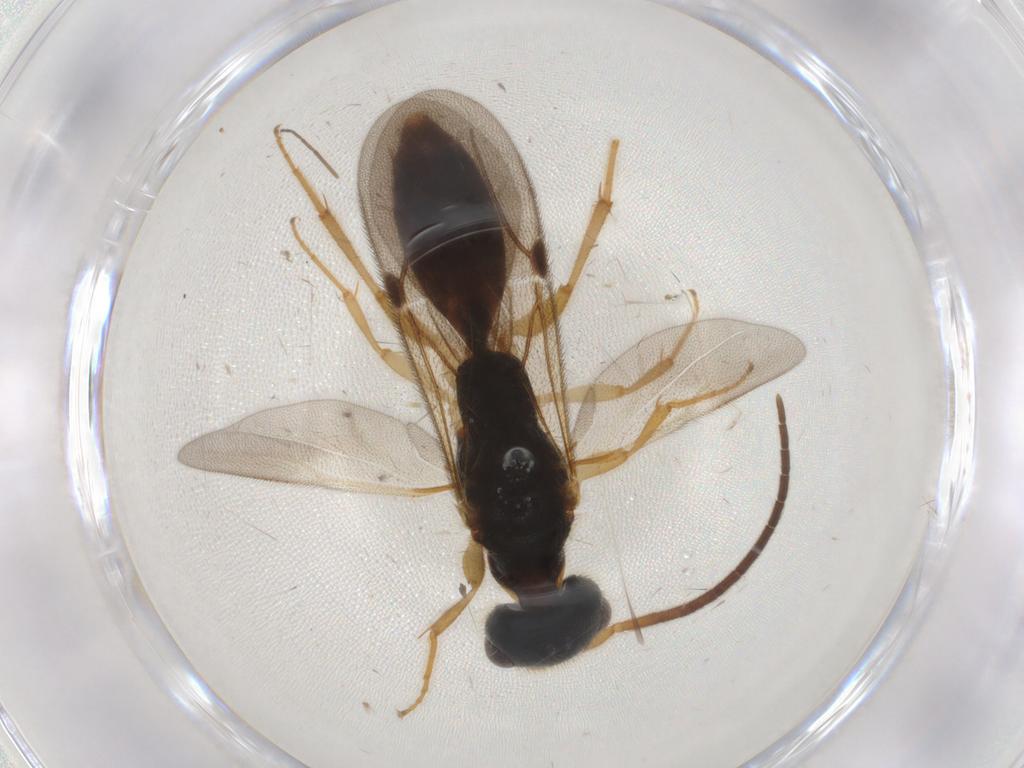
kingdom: Animalia
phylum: Arthropoda
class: Insecta
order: Hymenoptera
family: Bethylidae
